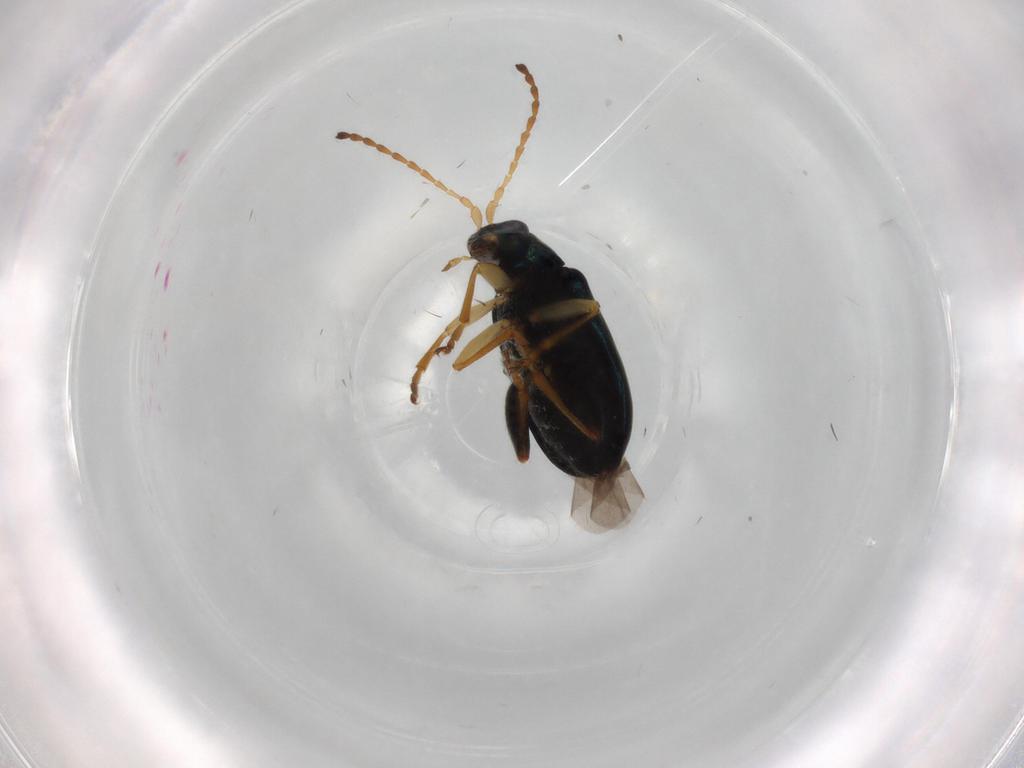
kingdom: Animalia
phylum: Arthropoda
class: Insecta
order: Coleoptera
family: Chrysomelidae
